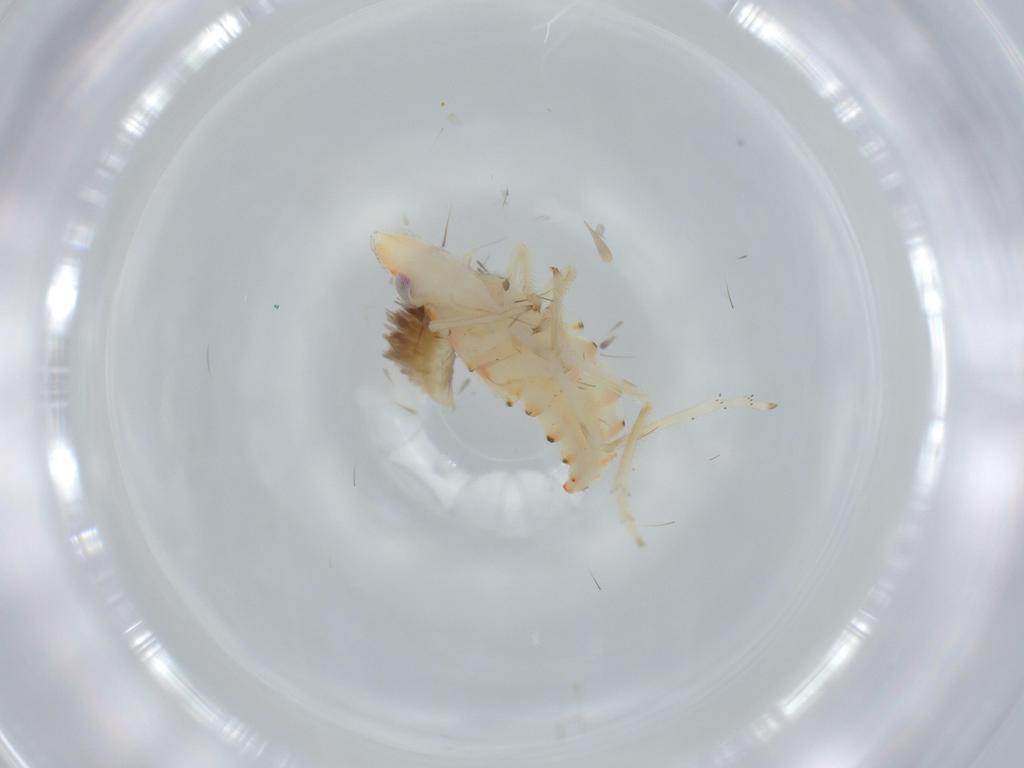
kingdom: Animalia
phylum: Arthropoda
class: Insecta
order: Hemiptera
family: Tropiduchidae
